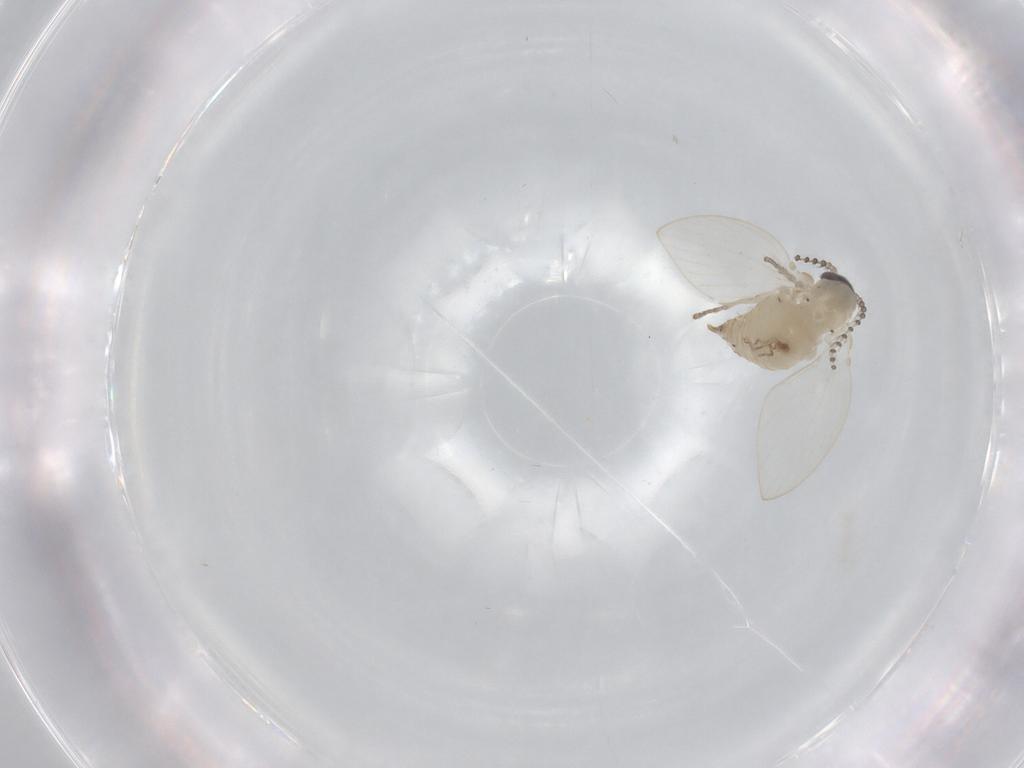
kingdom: Animalia
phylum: Arthropoda
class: Insecta
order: Diptera
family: Psychodidae
